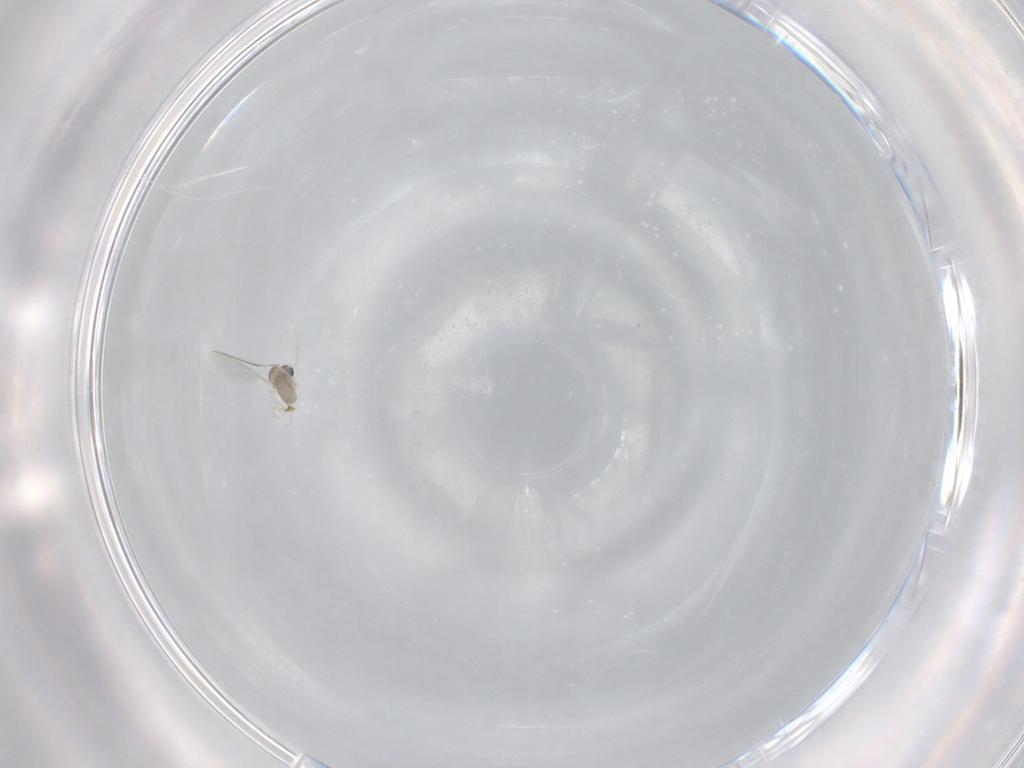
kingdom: Animalia
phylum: Arthropoda
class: Insecta
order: Diptera
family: Cecidomyiidae
